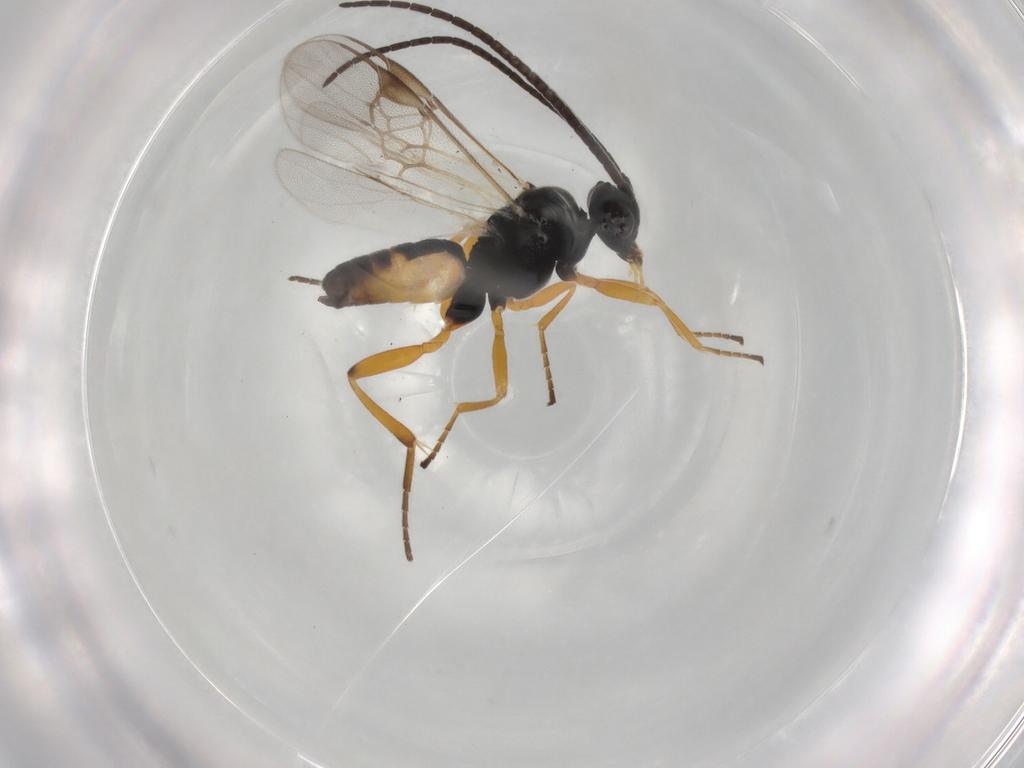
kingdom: Animalia
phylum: Arthropoda
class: Insecta
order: Hymenoptera
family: Braconidae
